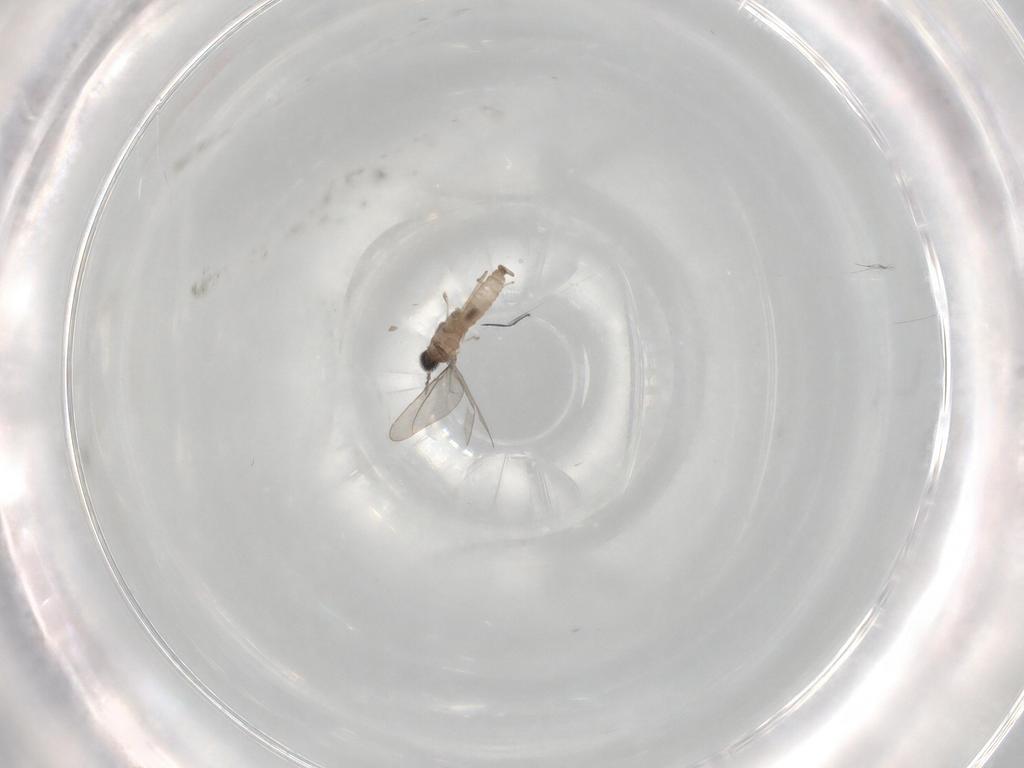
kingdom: Animalia
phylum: Arthropoda
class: Insecta
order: Diptera
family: Cecidomyiidae
